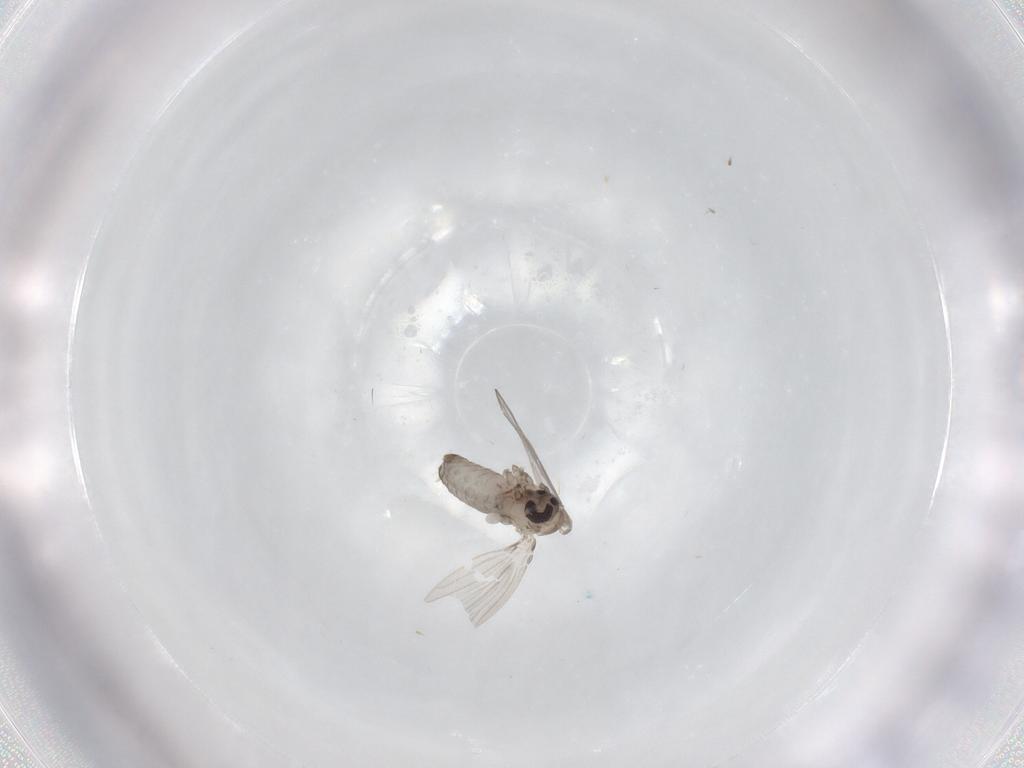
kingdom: Animalia
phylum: Arthropoda
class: Insecta
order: Diptera
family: Psychodidae
